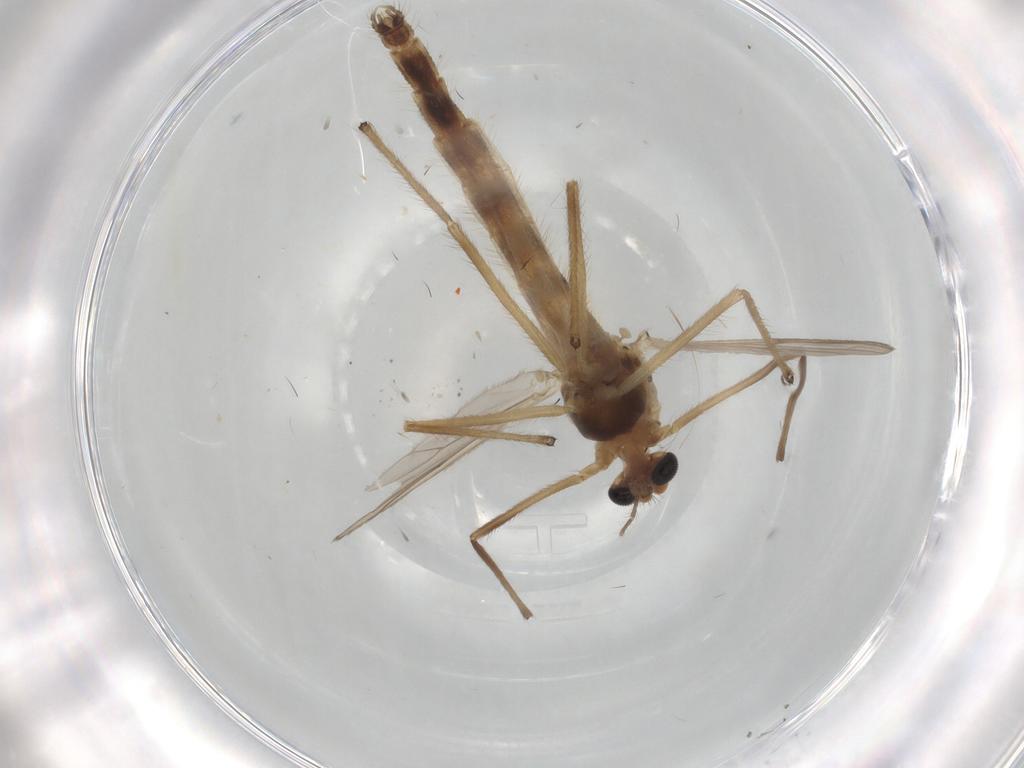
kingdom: Animalia
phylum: Arthropoda
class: Insecta
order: Diptera
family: Chironomidae
